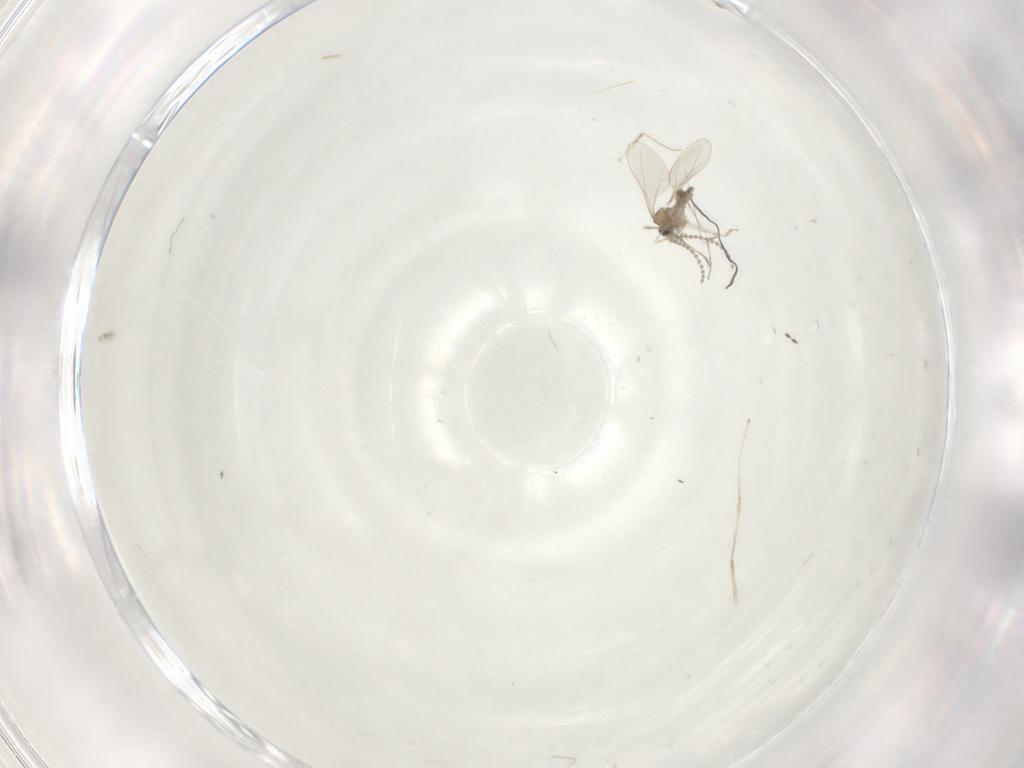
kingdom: Animalia
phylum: Arthropoda
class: Insecta
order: Diptera
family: Cecidomyiidae
